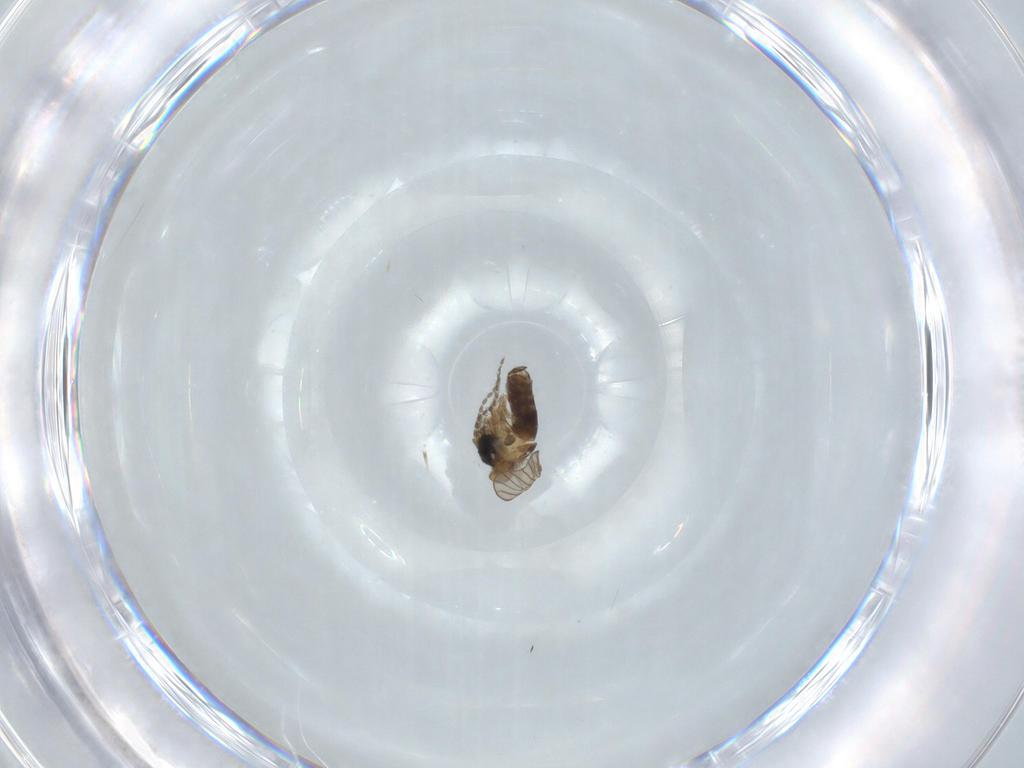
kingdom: Animalia
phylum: Arthropoda
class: Insecta
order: Diptera
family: Psychodidae
